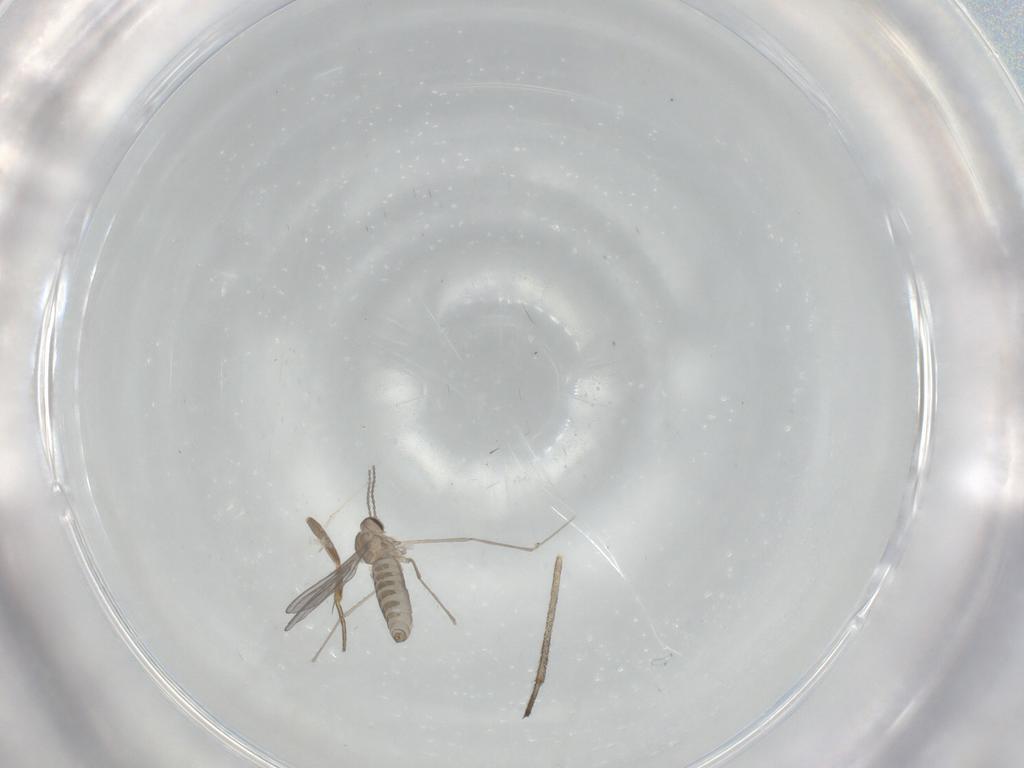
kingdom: Animalia
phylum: Arthropoda
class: Insecta
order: Diptera
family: Cecidomyiidae
